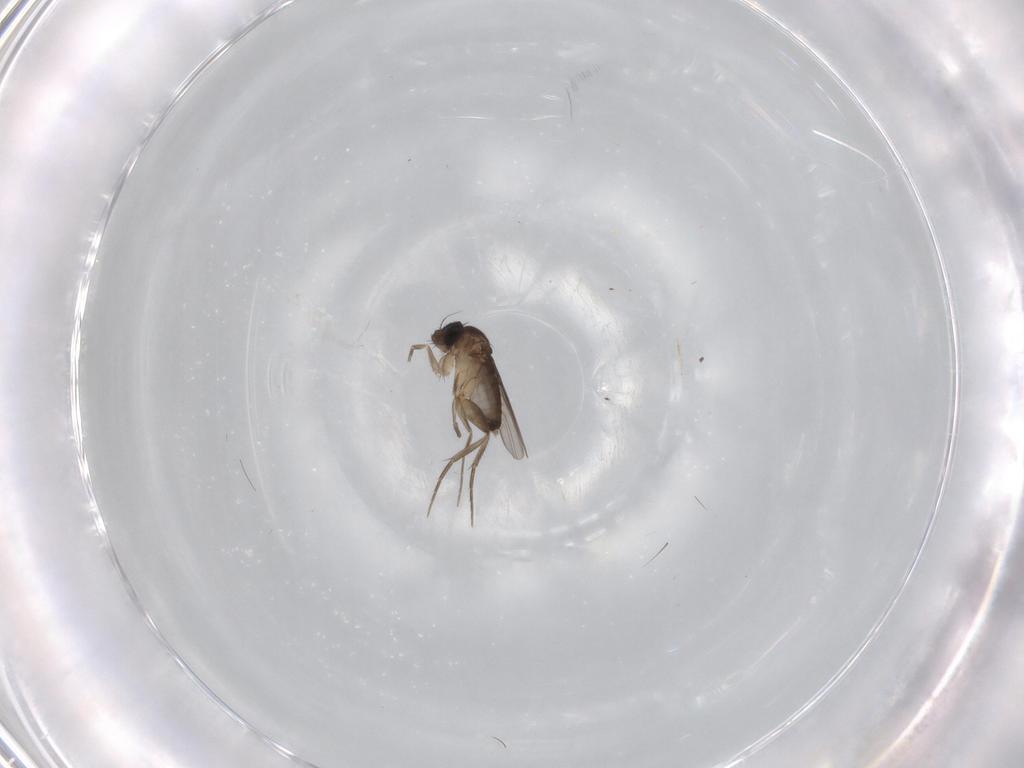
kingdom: Animalia
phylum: Arthropoda
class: Insecta
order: Diptera
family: Phoridae
